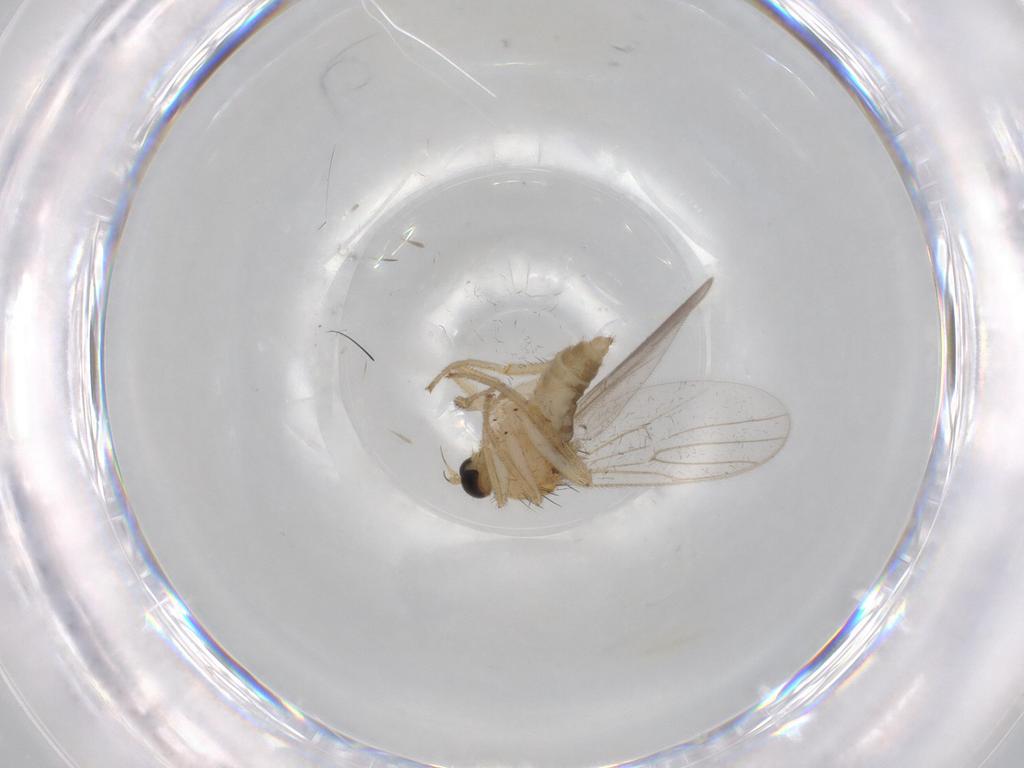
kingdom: Animalia
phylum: Arthropoda
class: Insecta
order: Diptera
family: Hybotidae
